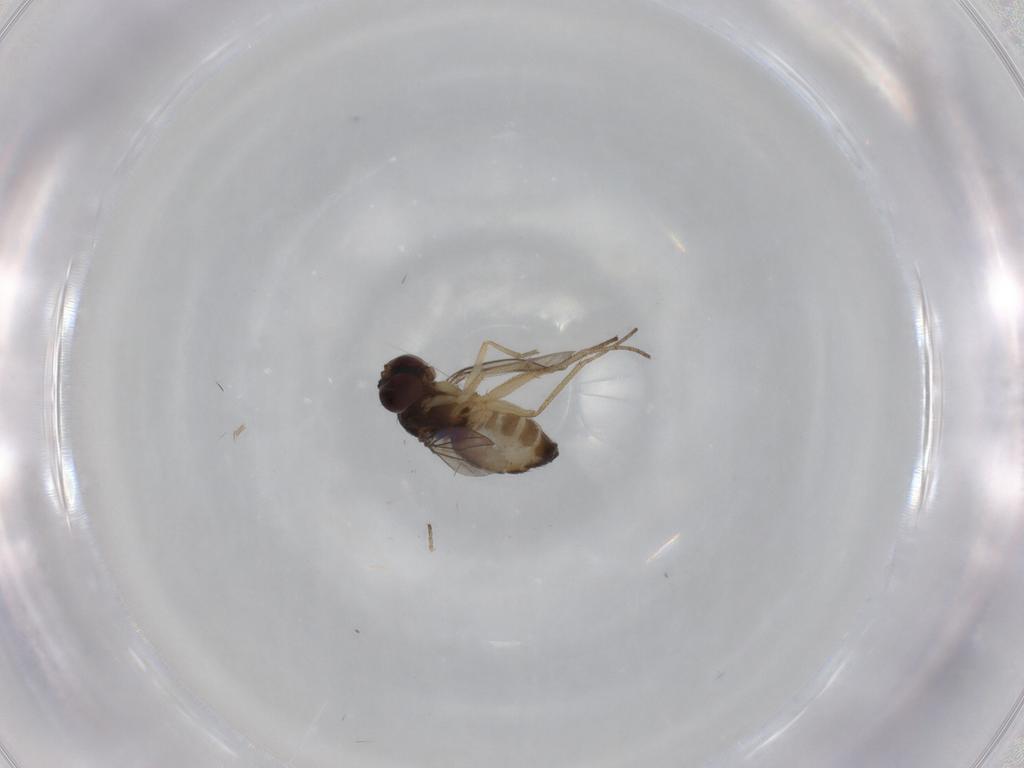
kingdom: Animalia
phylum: Arthropoda
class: Insecta
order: Diptera
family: Dolichopodidae
